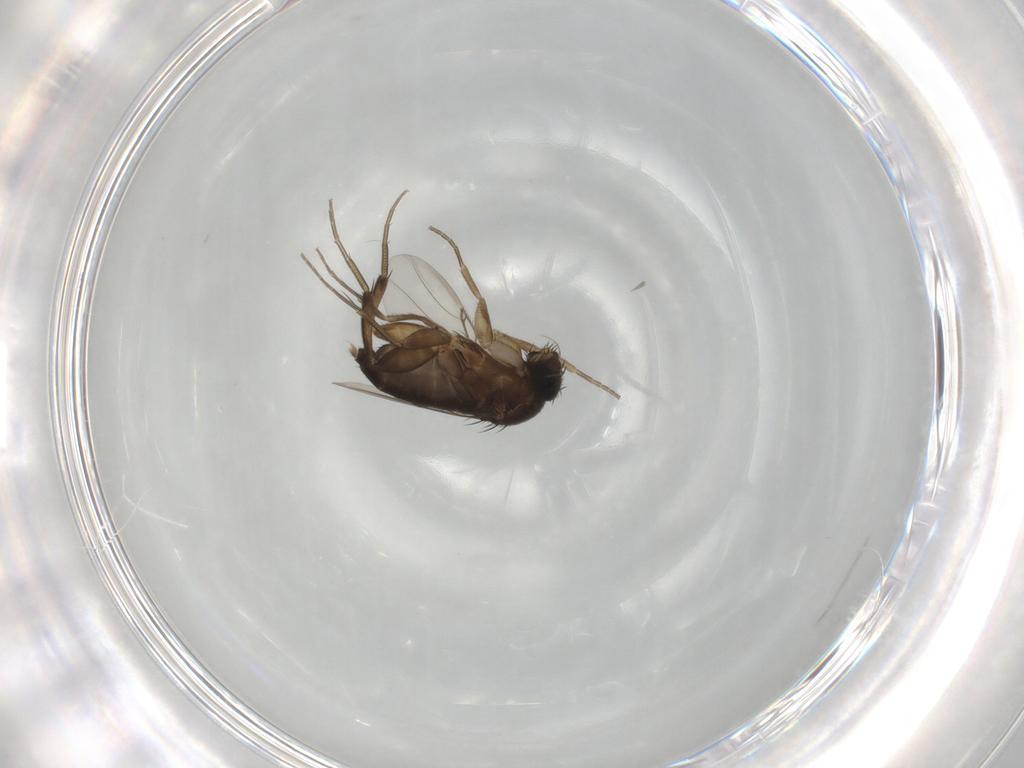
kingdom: Animalia
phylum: Arthropoda
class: Insecta
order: Diptera
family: Phoridae
